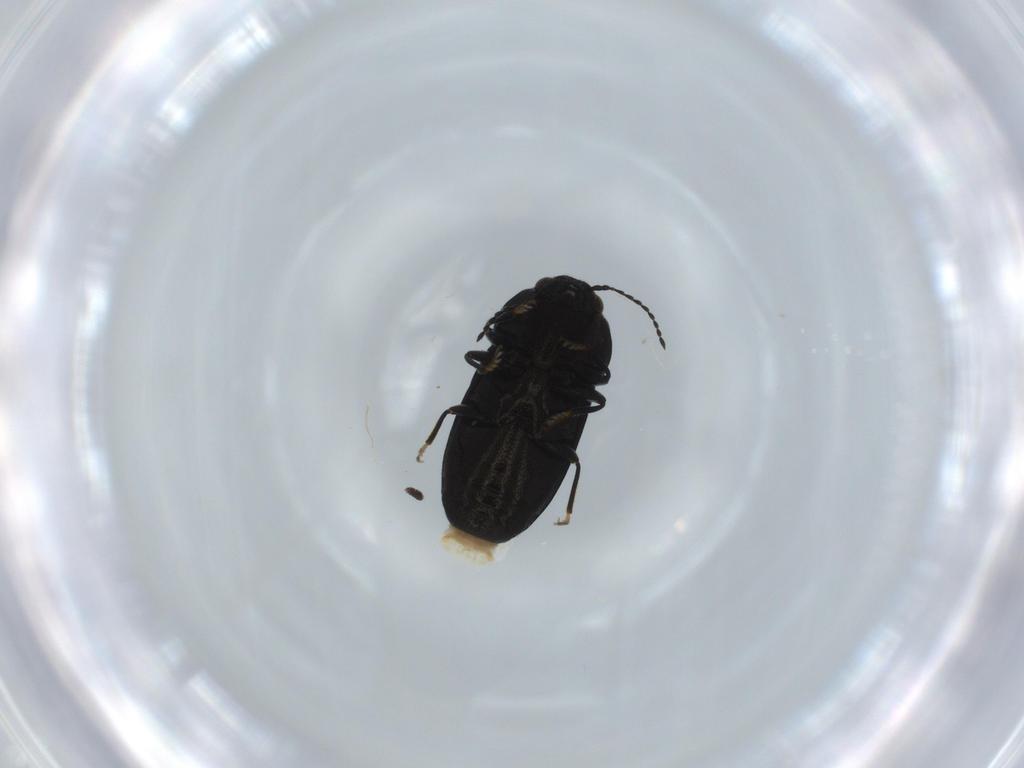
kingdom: Animalia
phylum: Arthropoda
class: Insecta
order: Coleoptera
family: Buprestidae
